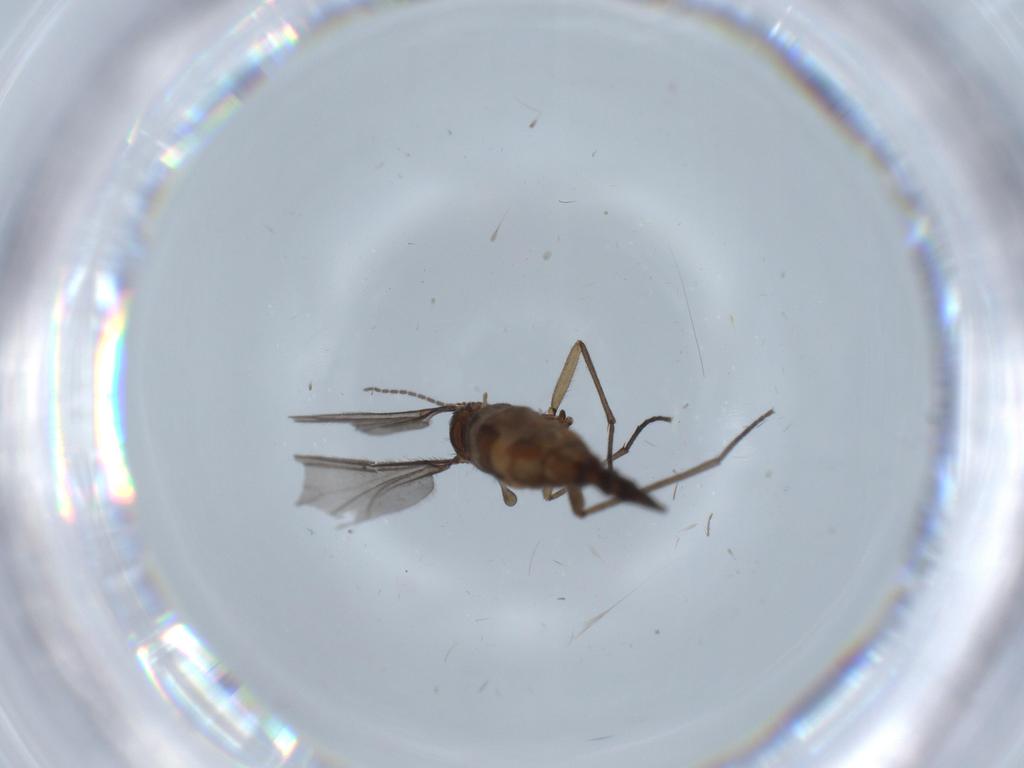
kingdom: Animalia
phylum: Arthropoda
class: Insecta
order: Diptera
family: Sciaridae
